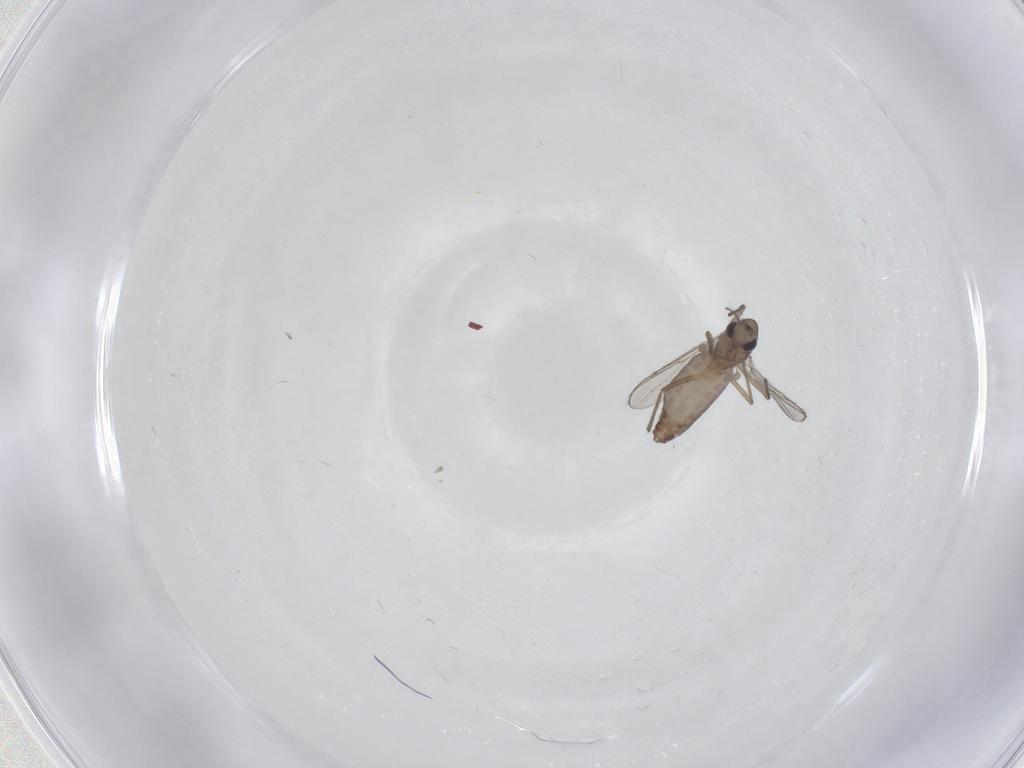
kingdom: Animalia
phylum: Arthropoda
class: Insecta
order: Diptera
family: Chironomidae
